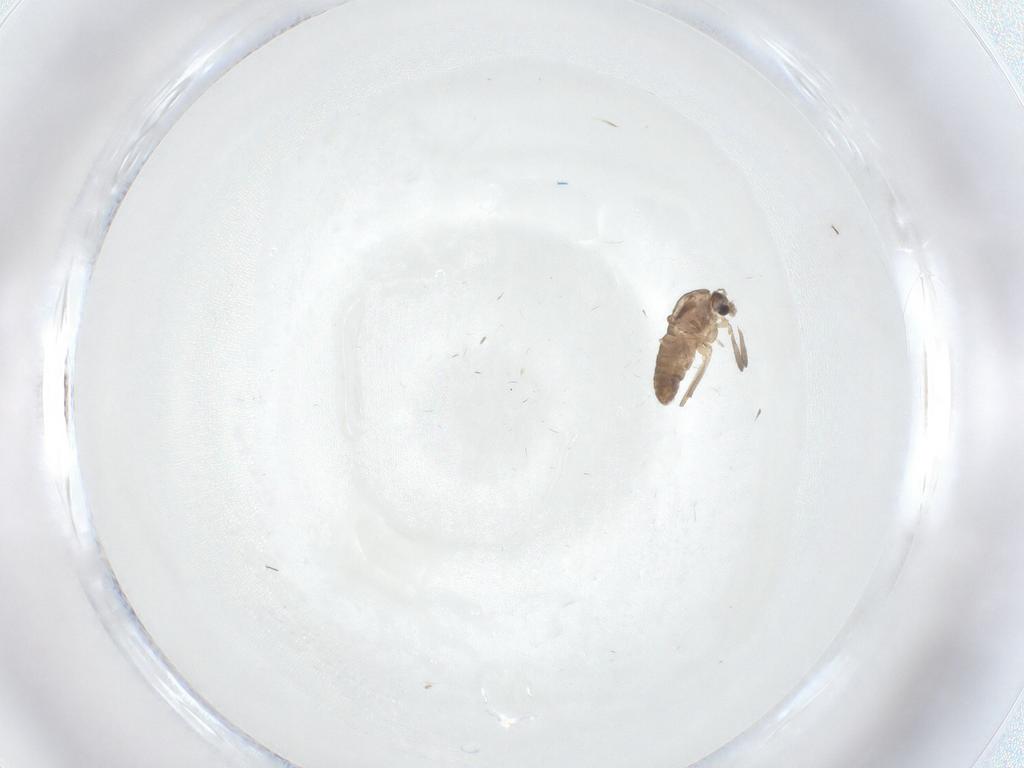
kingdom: Animalia
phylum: Arthropoda
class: Insecta
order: Diptera
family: Chironomidae
